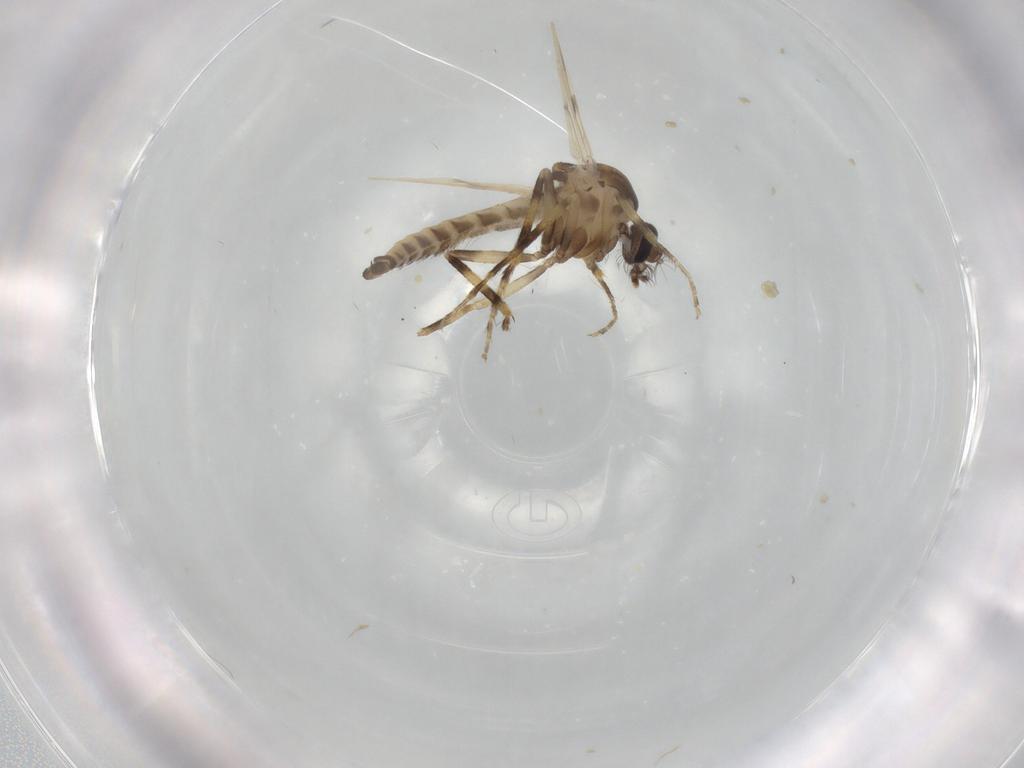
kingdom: Animalia
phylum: Arthropoda
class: Insecta
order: Diptera
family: Ceratopogonidae
